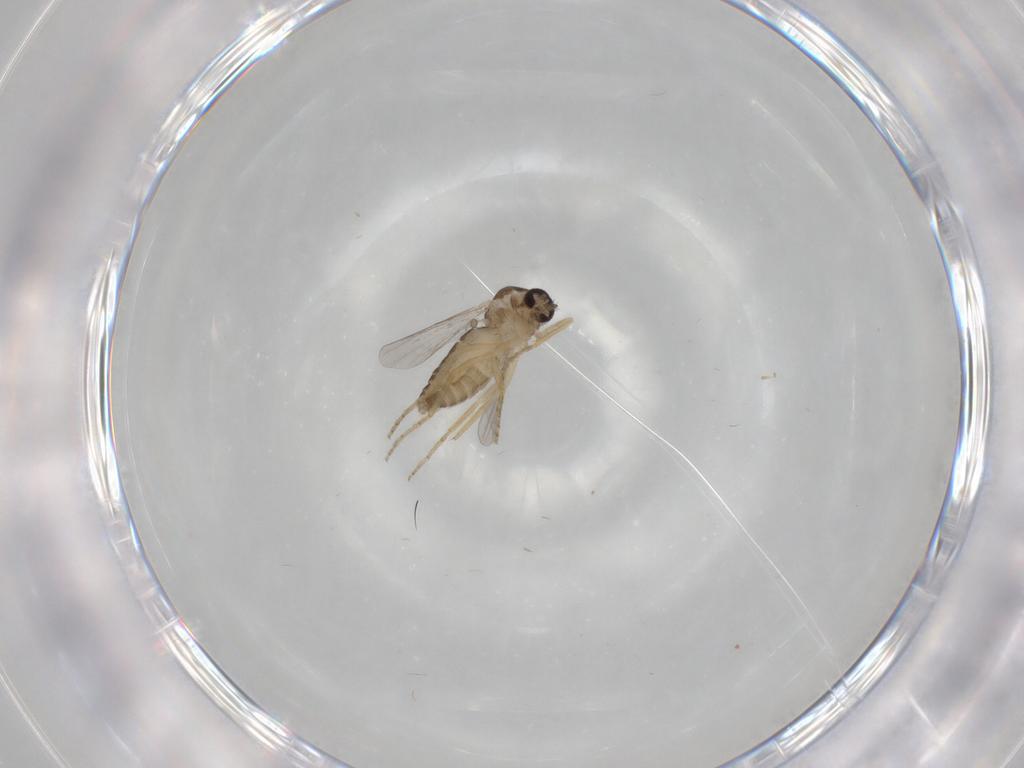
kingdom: Animalia
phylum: Arthropoda
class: Insecta
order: Diptera
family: Ceratopogonidae
